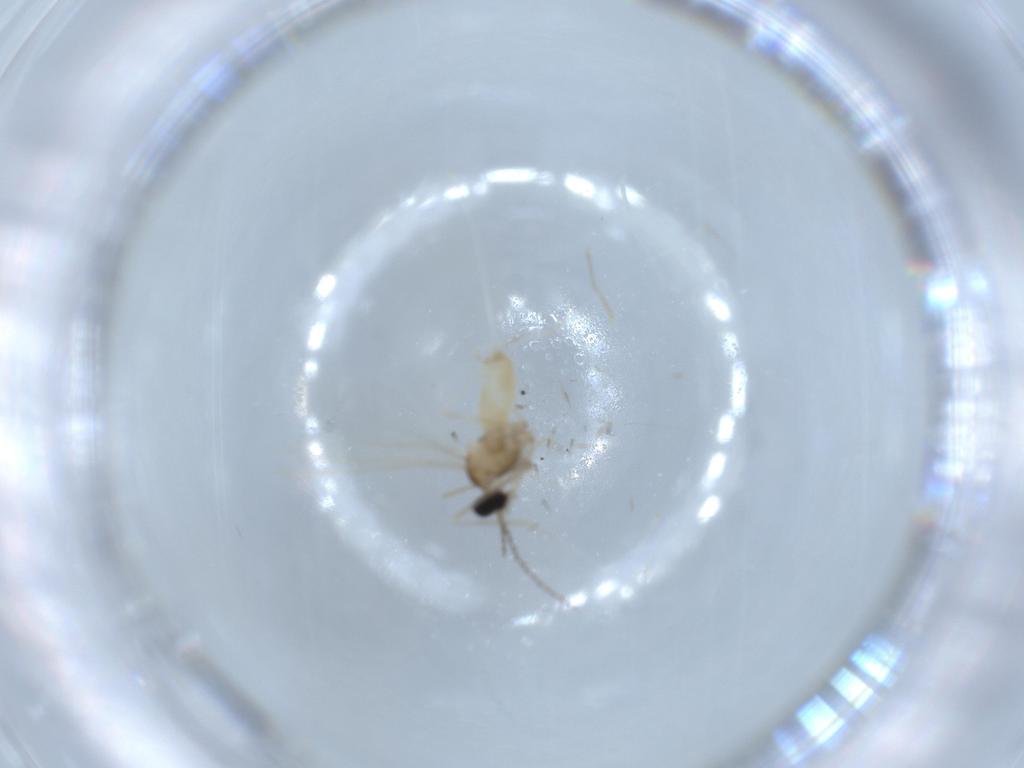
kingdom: Animalia
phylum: Arthropoda
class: Insecta
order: Diptera
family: Cecidomyiidae
